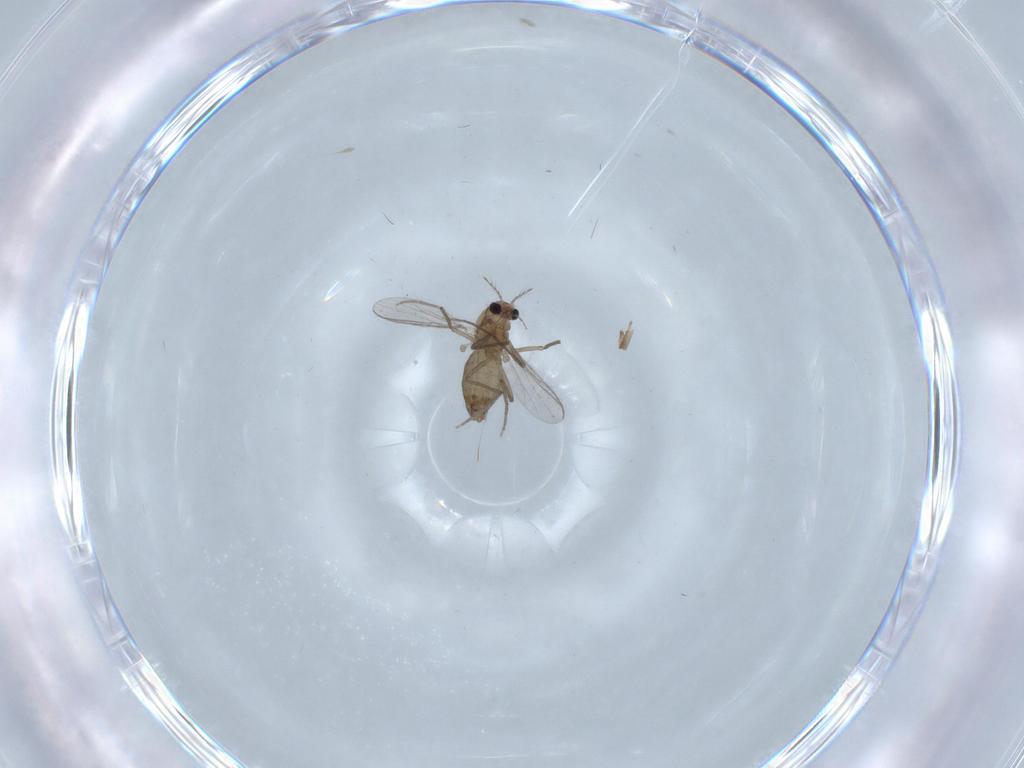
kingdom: Animalia
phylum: Arthropoda
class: Insecta
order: Diptera
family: Chironomidae
